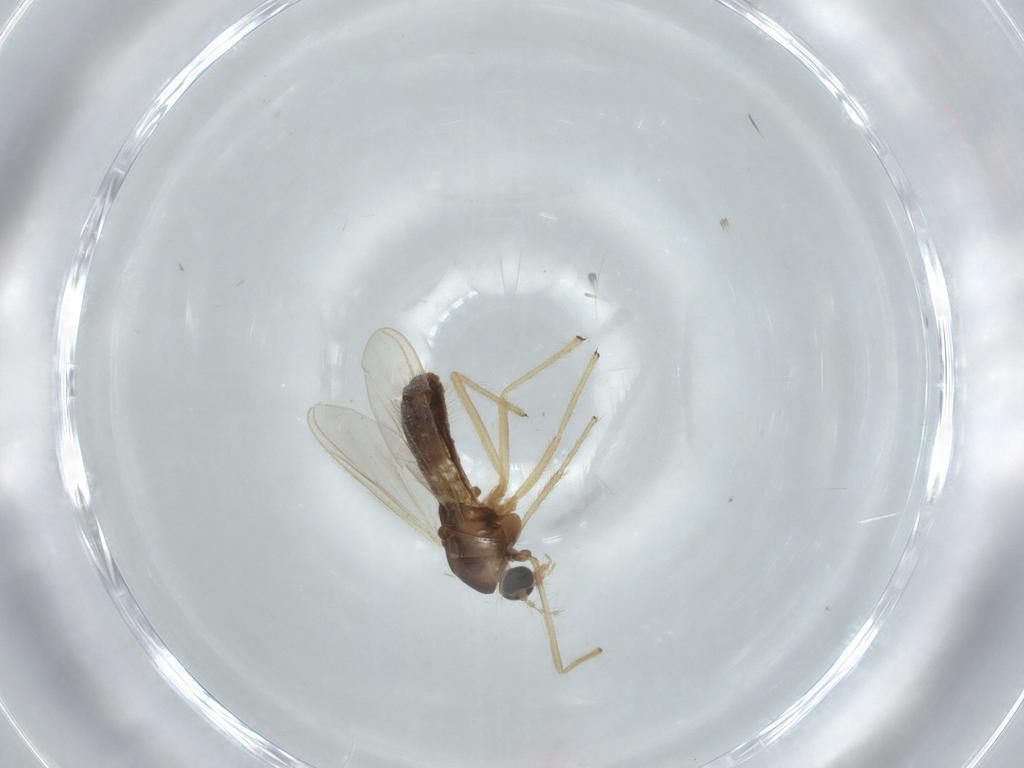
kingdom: Animalia
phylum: Arthropoda
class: Insecta
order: Diptera
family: Chironomidae
